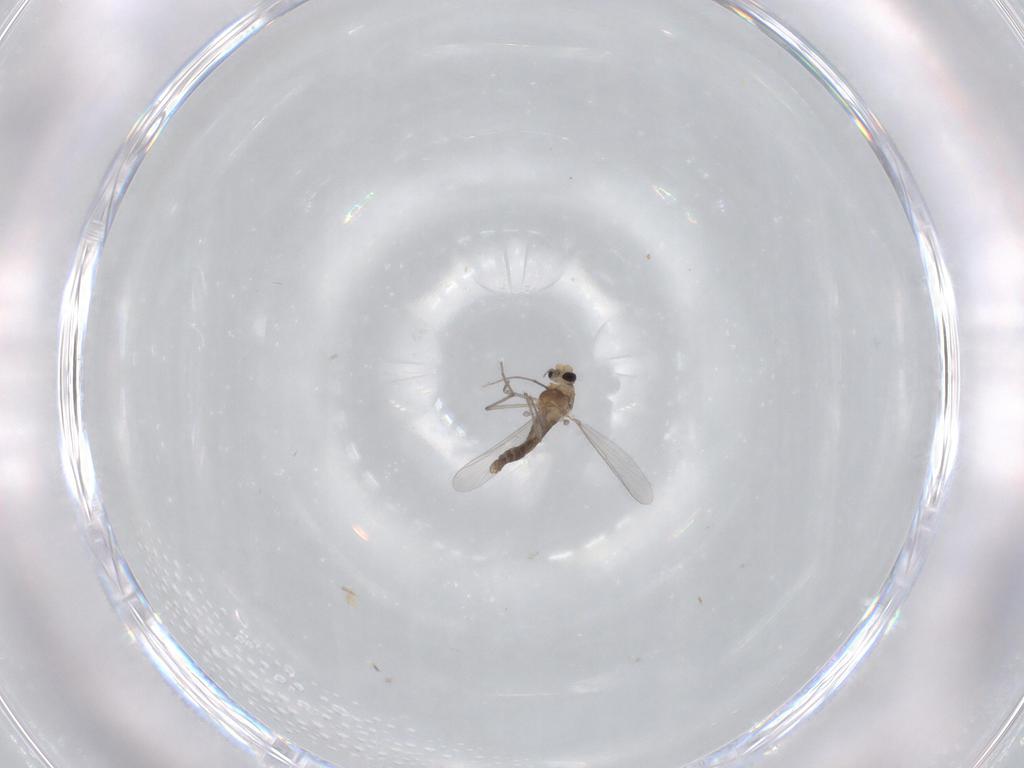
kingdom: Animalia
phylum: Arthropoda
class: Insecta
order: Diptera
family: Chironomidae
